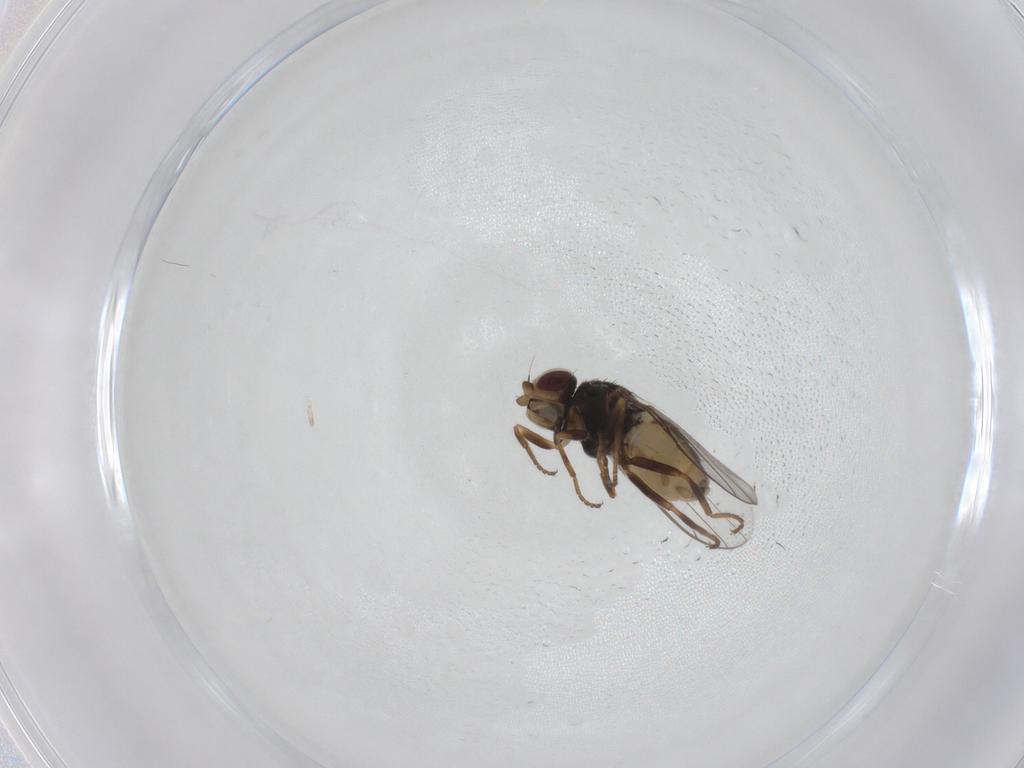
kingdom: Animalia
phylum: Arthropoda
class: Insecta
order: Diptera
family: Chloropidae
